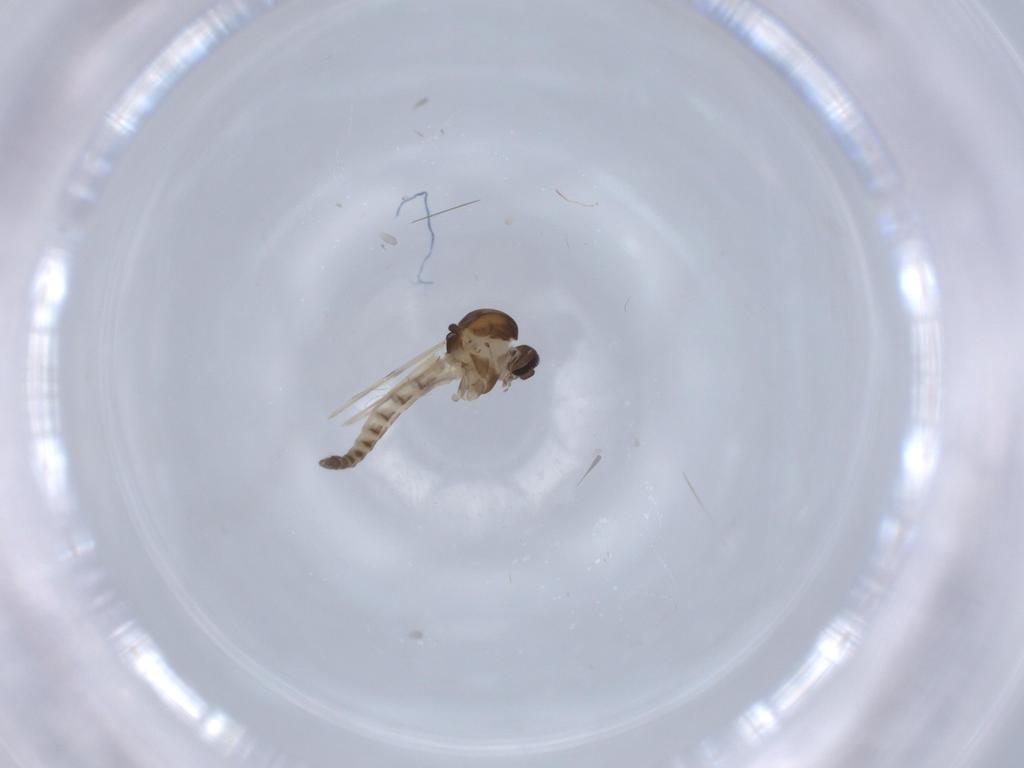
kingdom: Animalia
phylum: Arthropoda
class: Insecta
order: Diptera
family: Ceratopogonidae
